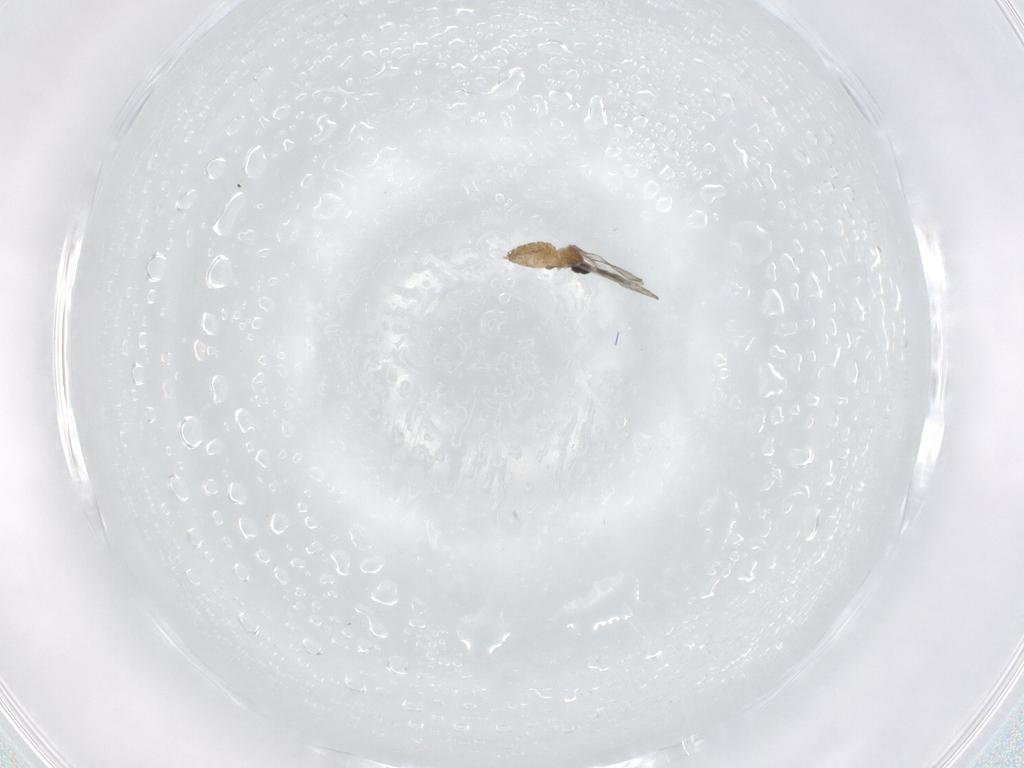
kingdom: Animalia
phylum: Arthropoda
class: Insecta
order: Diptera
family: Cecidomyiidae
